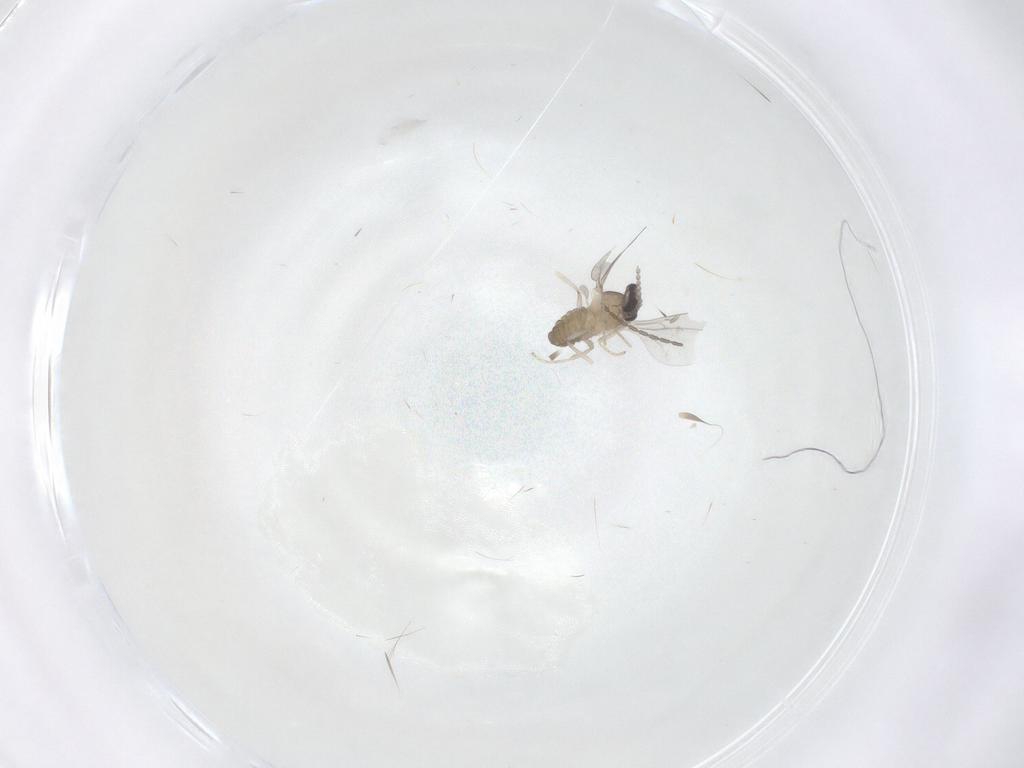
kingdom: Animalia
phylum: Arthropoda
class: Insecta
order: Diptera
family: Cecidomyiidae
